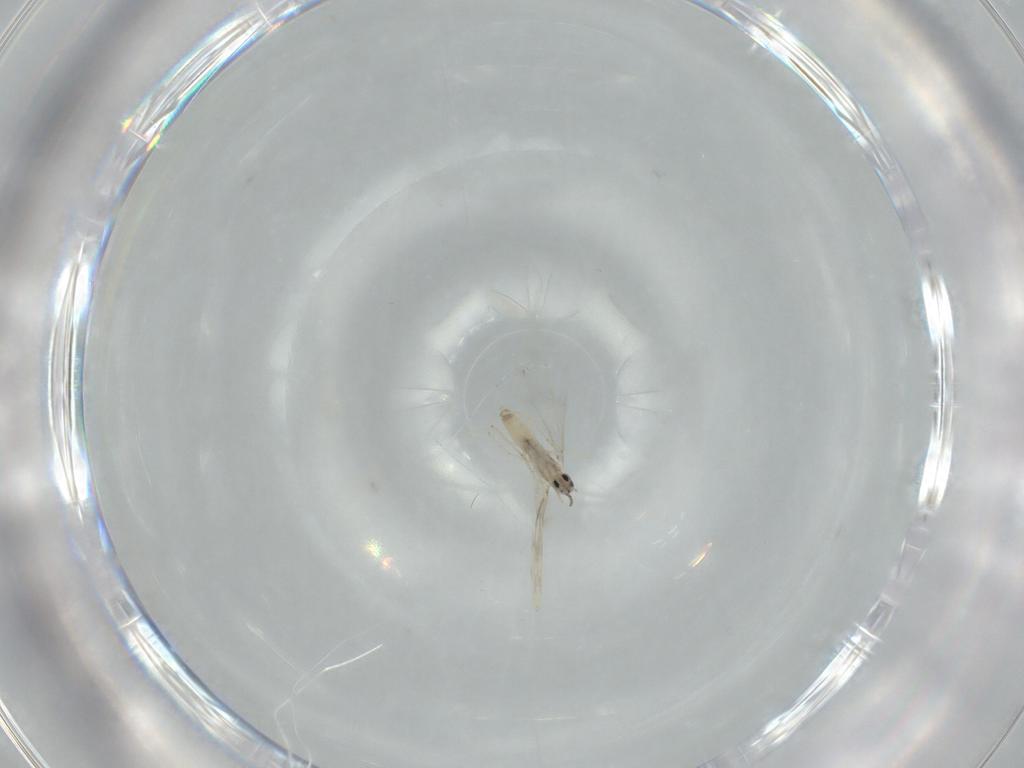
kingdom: Animalia
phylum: Arthropoda
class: Insecta
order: Diptera
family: Cecidomyiidae
